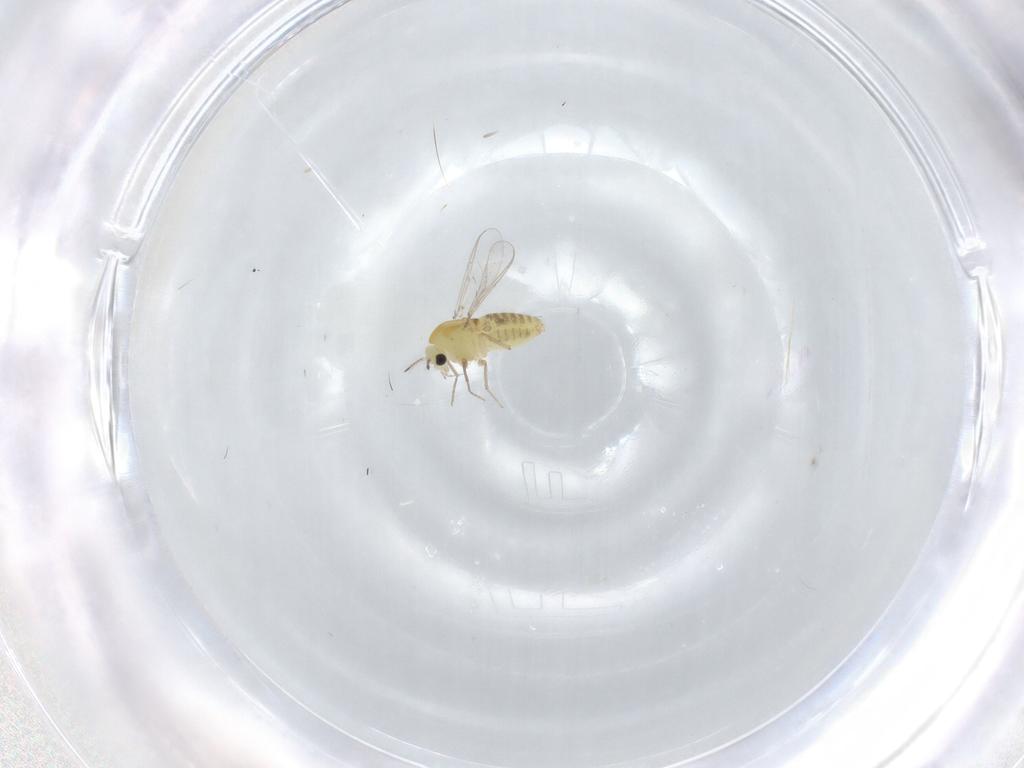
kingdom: Animalia
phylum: Arthropoda
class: Insecta
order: Diptera
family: Chironomidae
